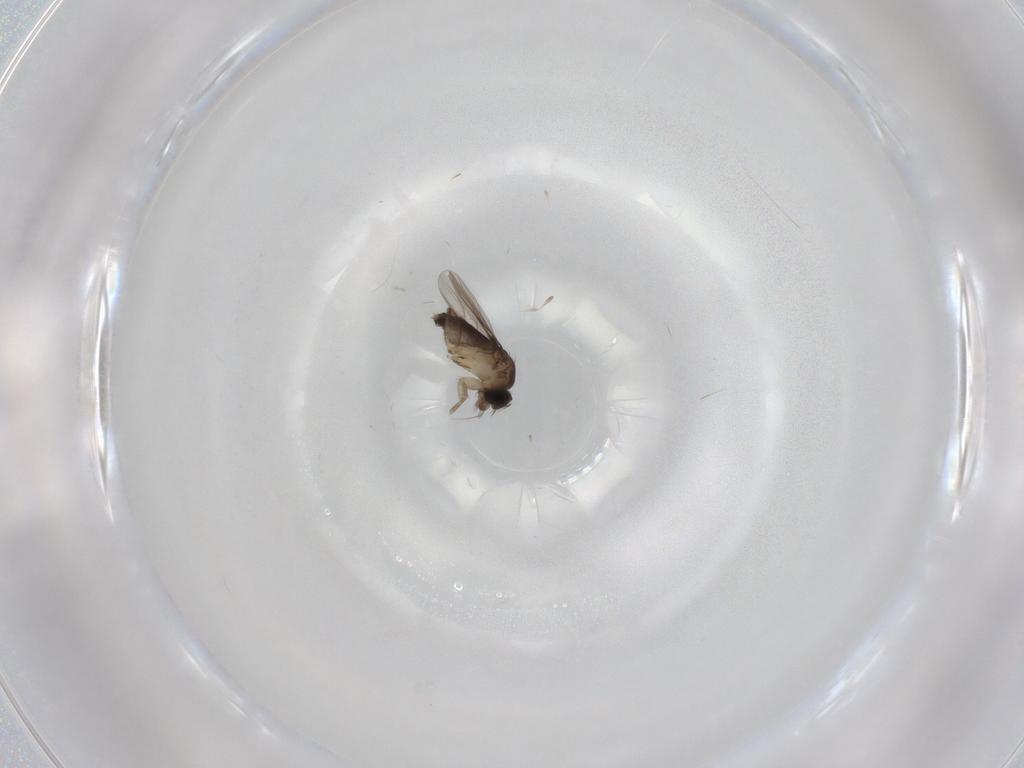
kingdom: Animalia
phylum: Arthropoda
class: Insecta
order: Diptera
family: Phoridae
